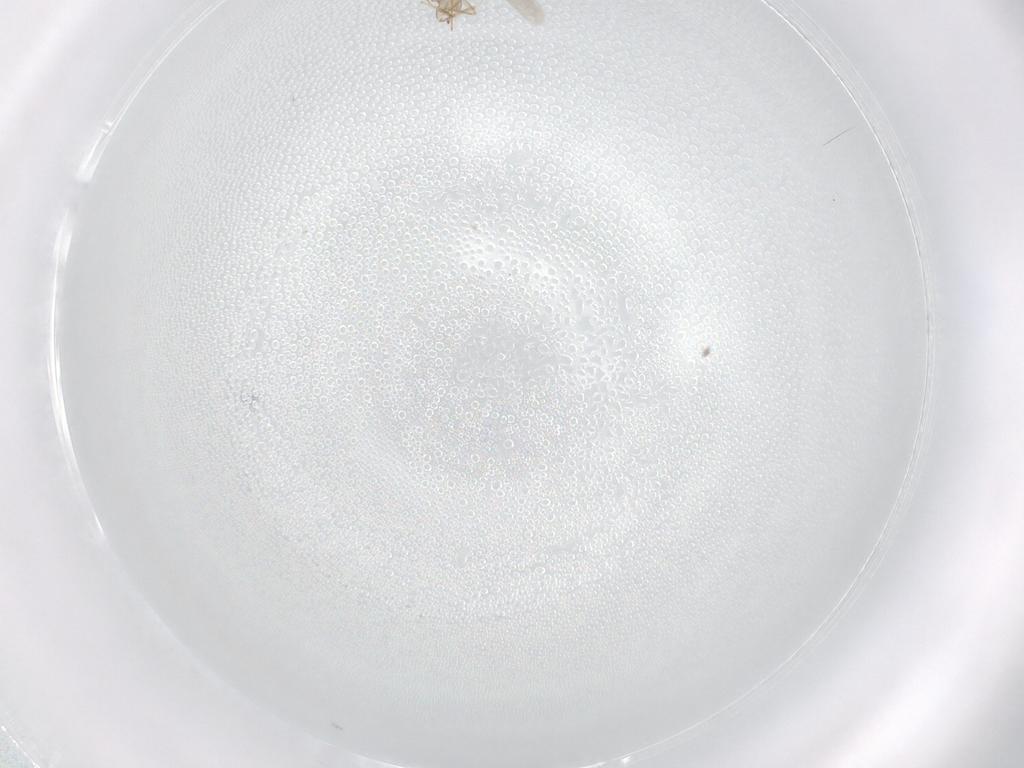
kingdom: Animalia
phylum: Arthropoda
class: Insecta
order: Hymenoptera
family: Aphelinidae
